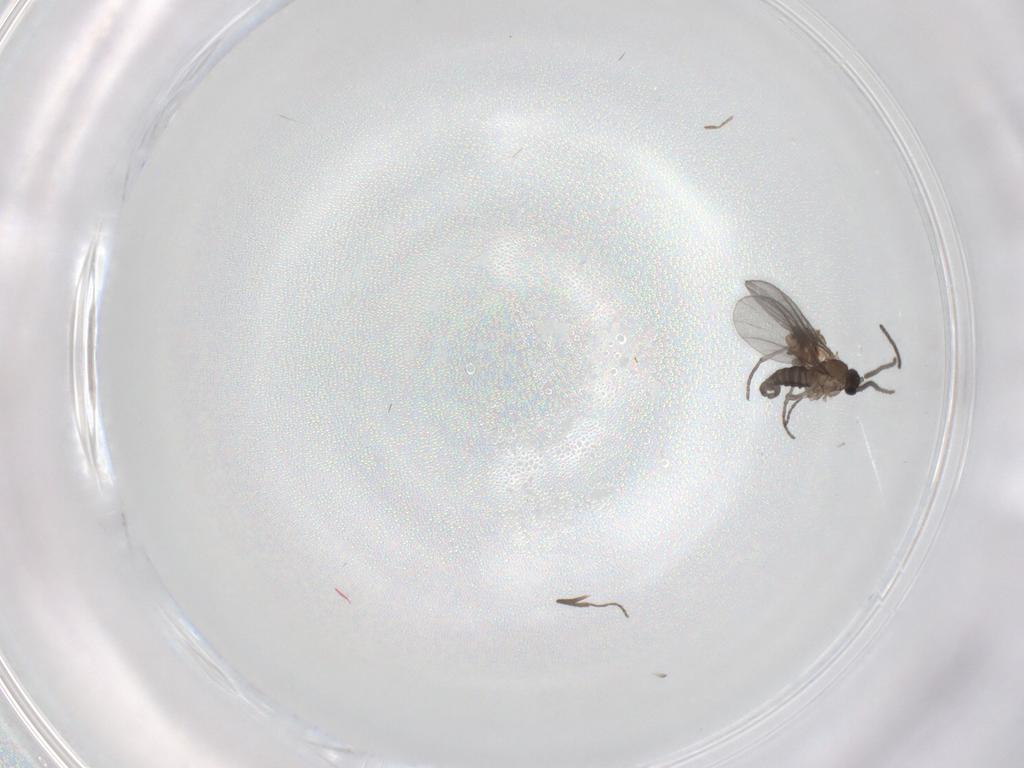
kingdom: Animalia
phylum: Arthropoda
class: Insecta
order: Diptera
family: Sciaridae
